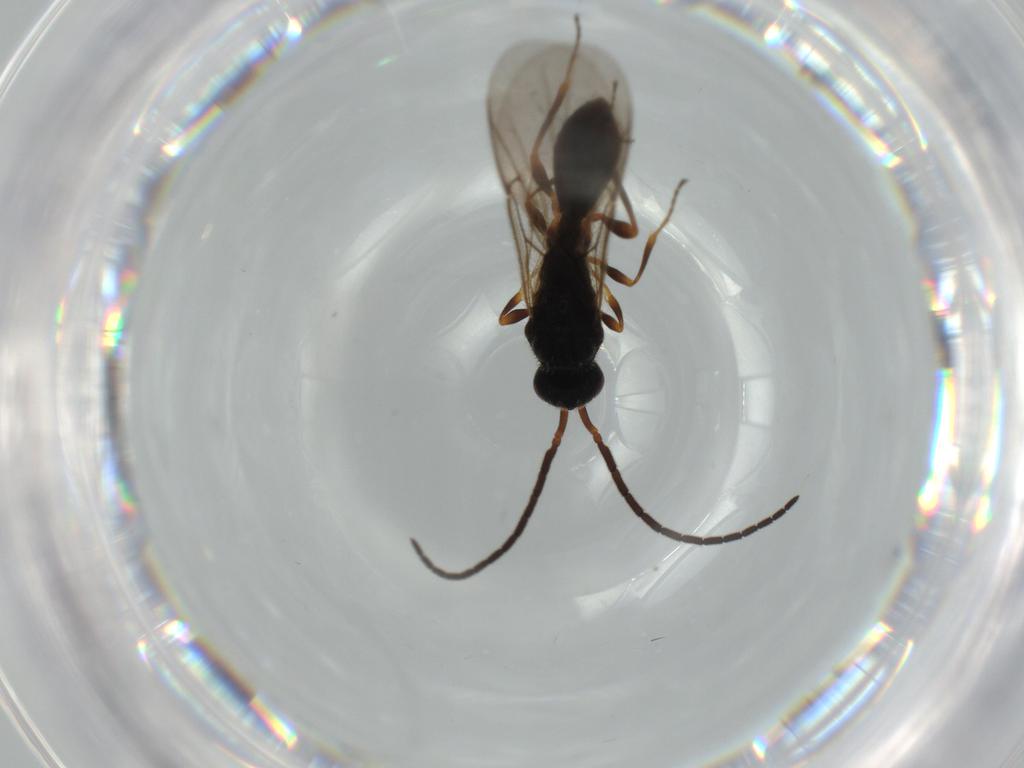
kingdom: Animalia
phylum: Arthropoda
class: Insecta
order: Hymenoptera
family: Diapriidae
